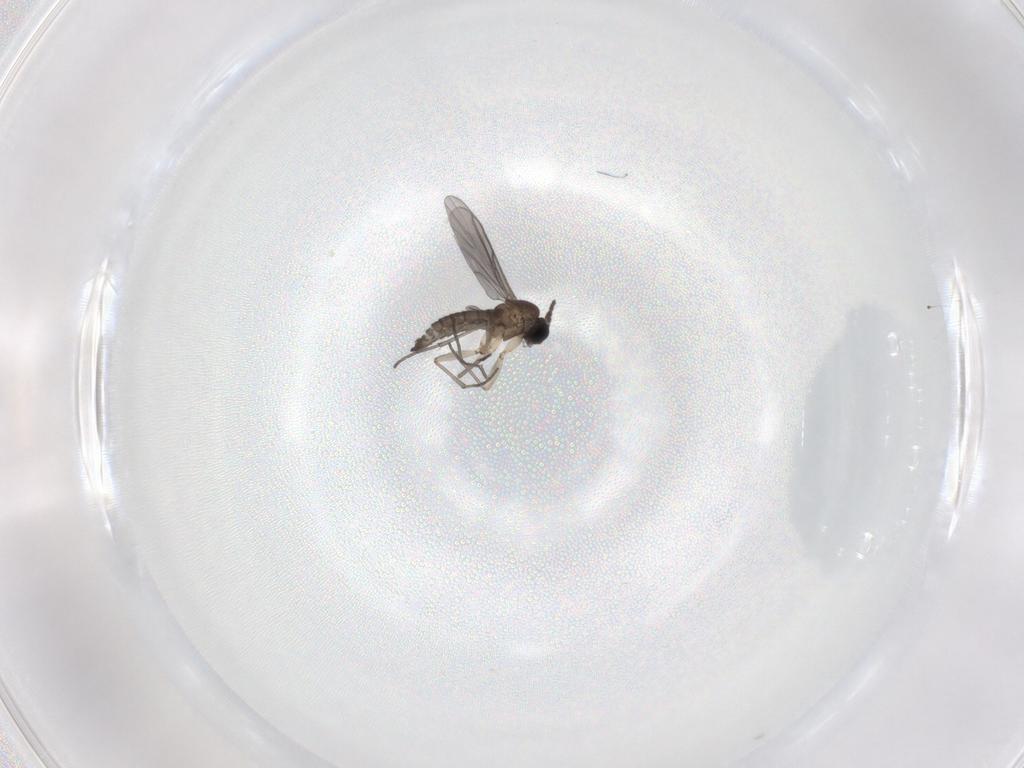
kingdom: Animalia
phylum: Arthropoda
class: Insecta
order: Diptera
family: Sciaridae
